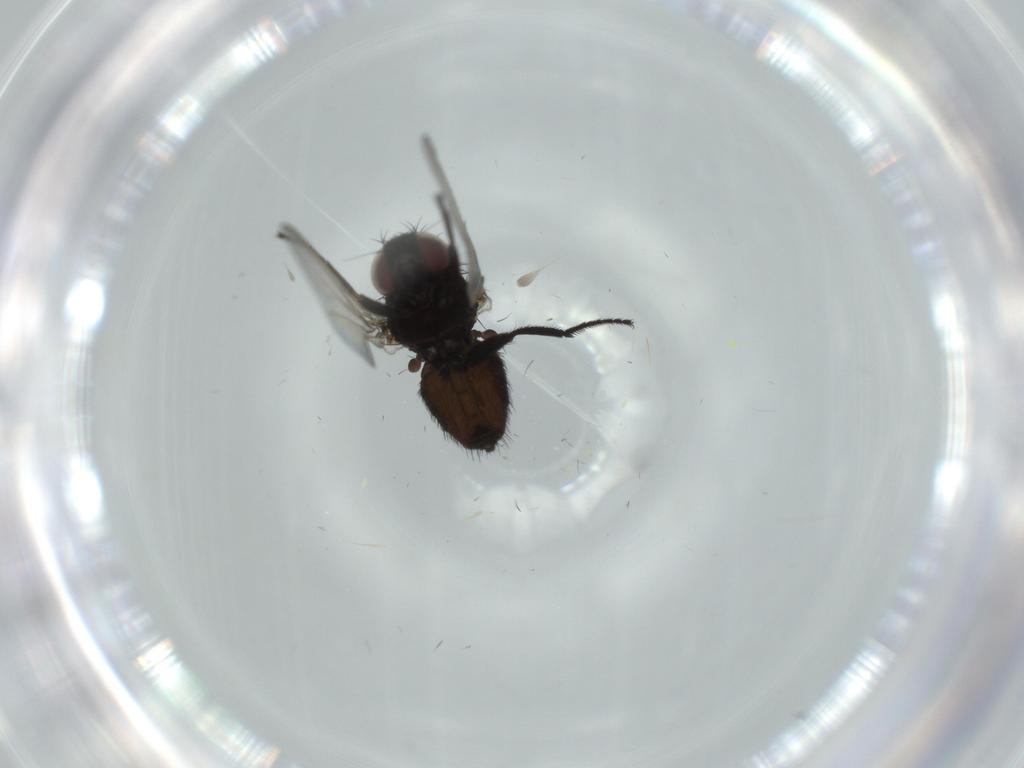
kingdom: Animalia
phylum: Arthropoda
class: Insecta
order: Diptera
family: Milichiidae
